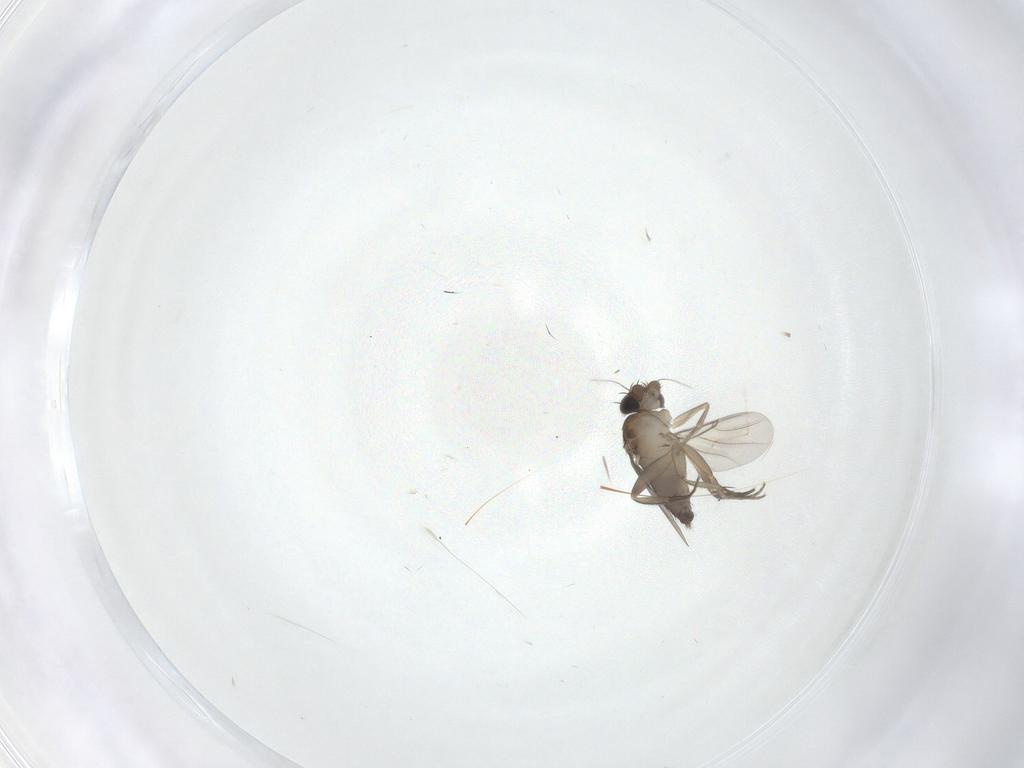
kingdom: Animalia
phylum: Arthropoda
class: Insecta
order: Diptera
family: Phoridae
